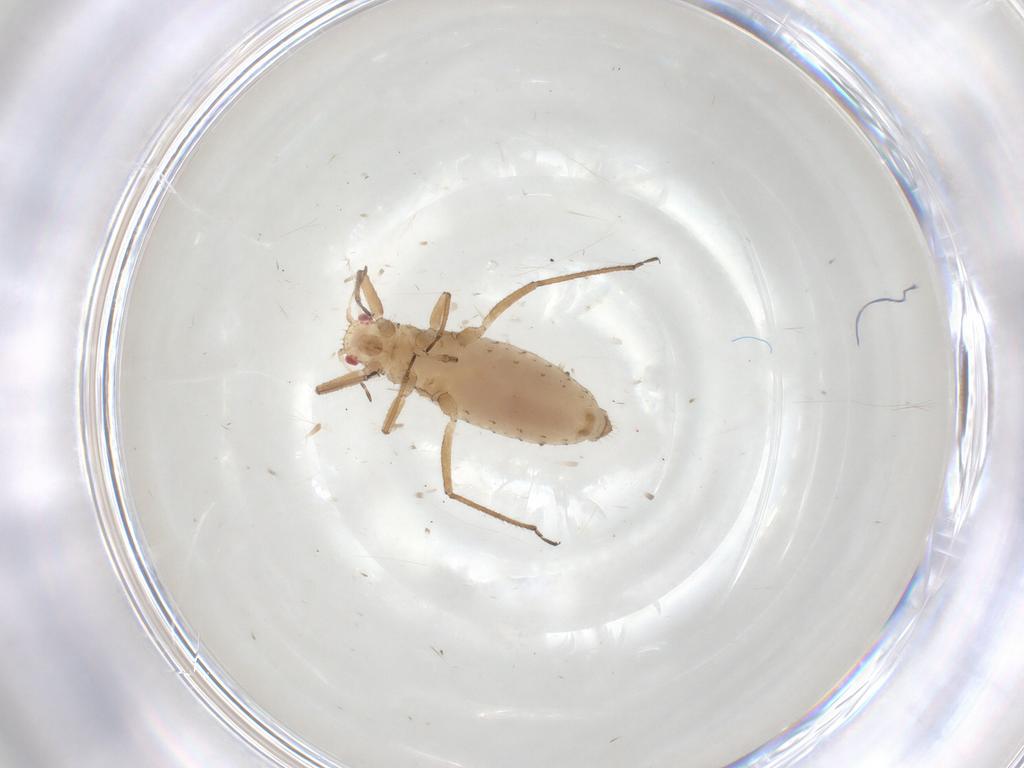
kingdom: Animalia
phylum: Arthropoda
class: Insecta
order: Hemiptera
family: Lachnidae
